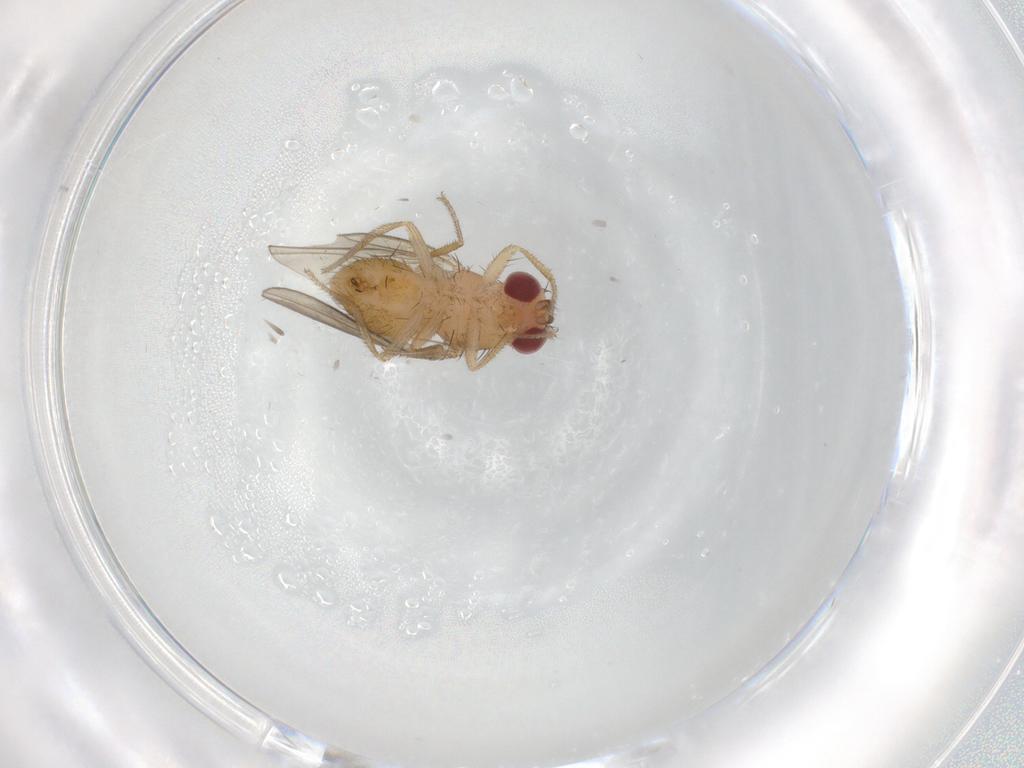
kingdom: Animalia
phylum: Arthropoda
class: Insecta
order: Diptera
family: Drosophilidae
